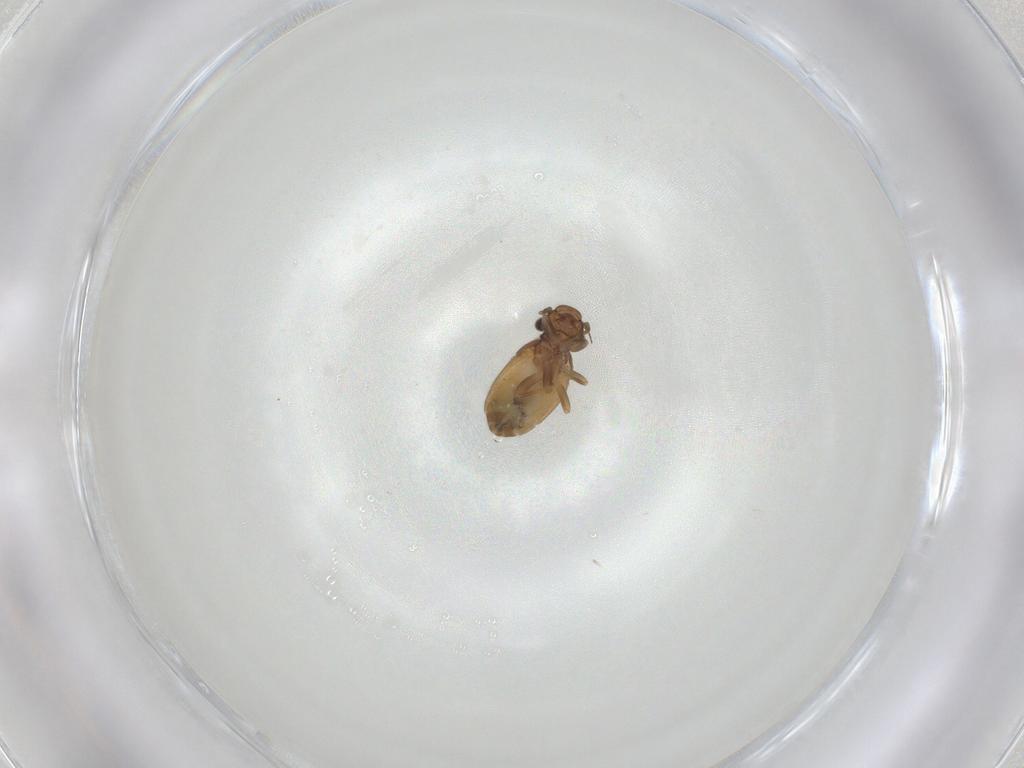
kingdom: Animalia
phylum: Arthropoda
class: Insecta
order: Psocodea
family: Trogiidae
